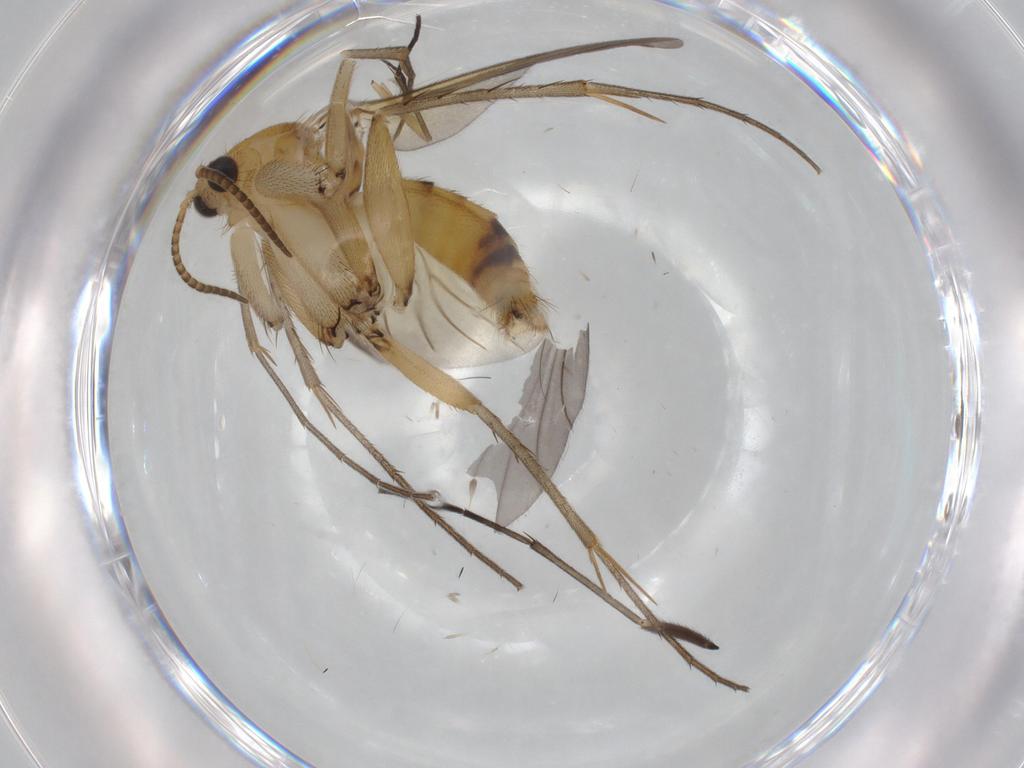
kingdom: Animalia
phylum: Arthropoda
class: Insecta
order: Diptera
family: Mycetophilidae
